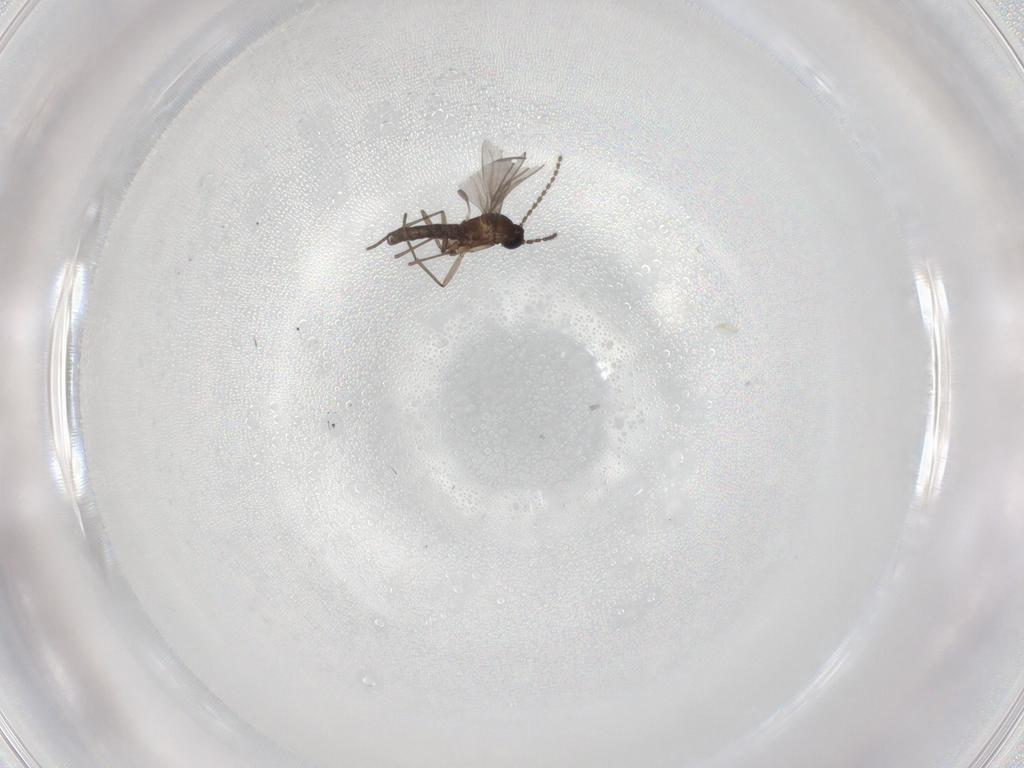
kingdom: Animalia
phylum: Arthropoda
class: Insecta
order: Diptera
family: Sciaridae
